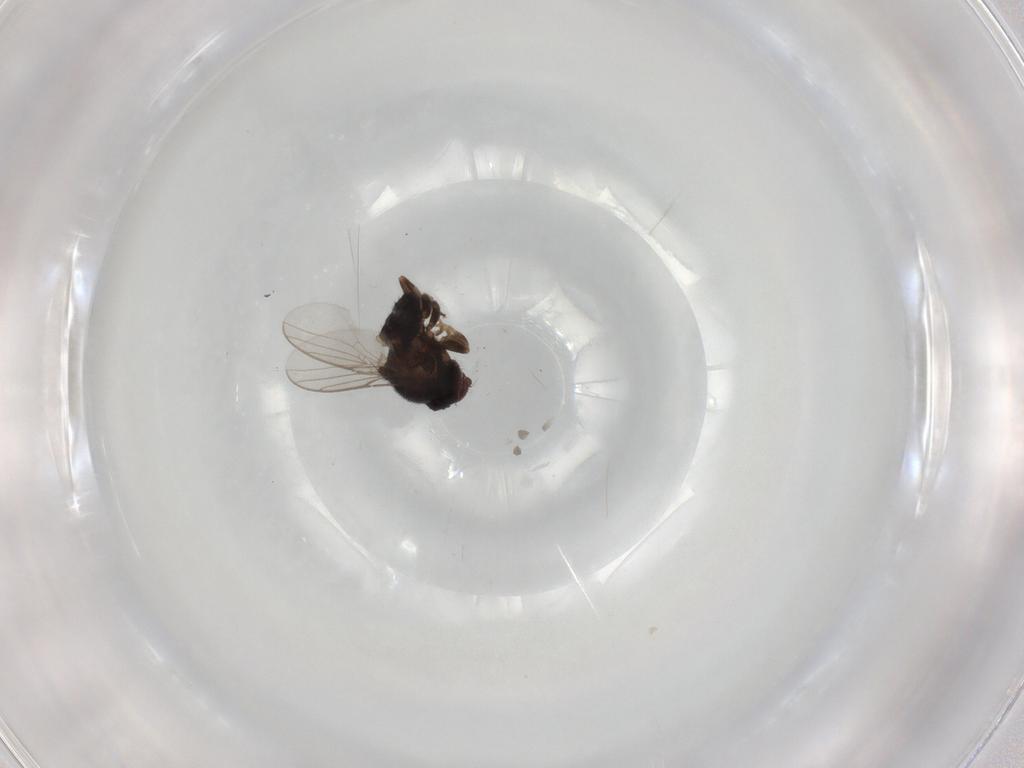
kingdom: Animalia
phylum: Arthropoda
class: Insecta
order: Diptera
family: Chloropidae
